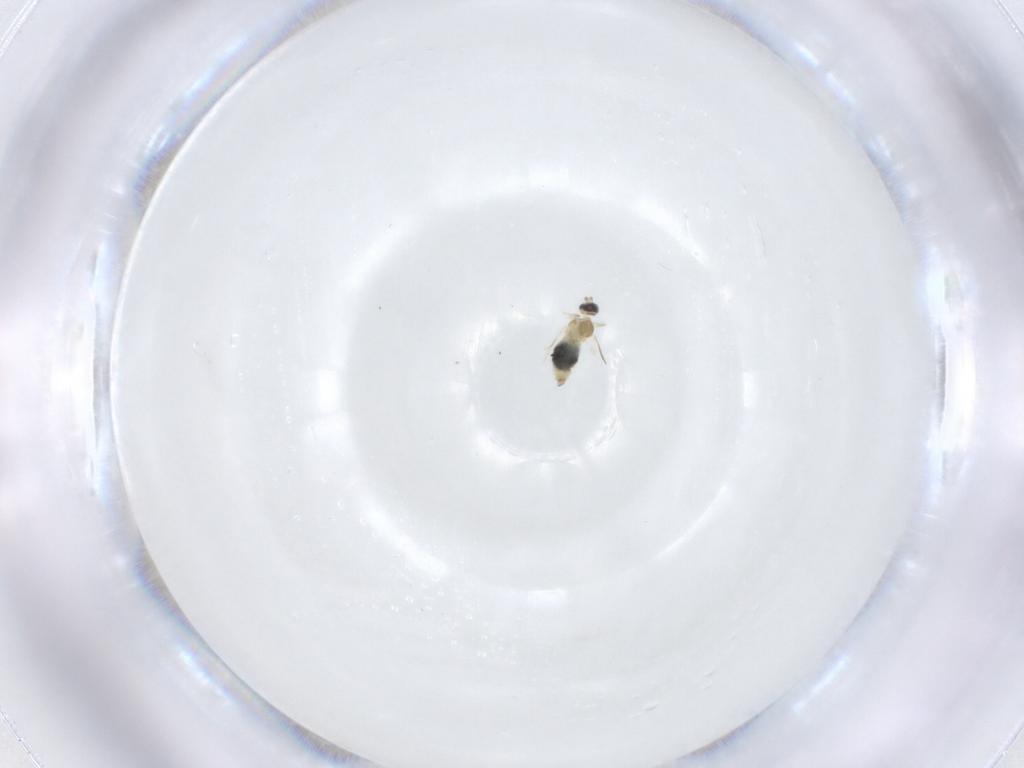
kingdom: Animalia
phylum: Arthropoda
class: Insecta
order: Diptera
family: Cecidomyiidae
